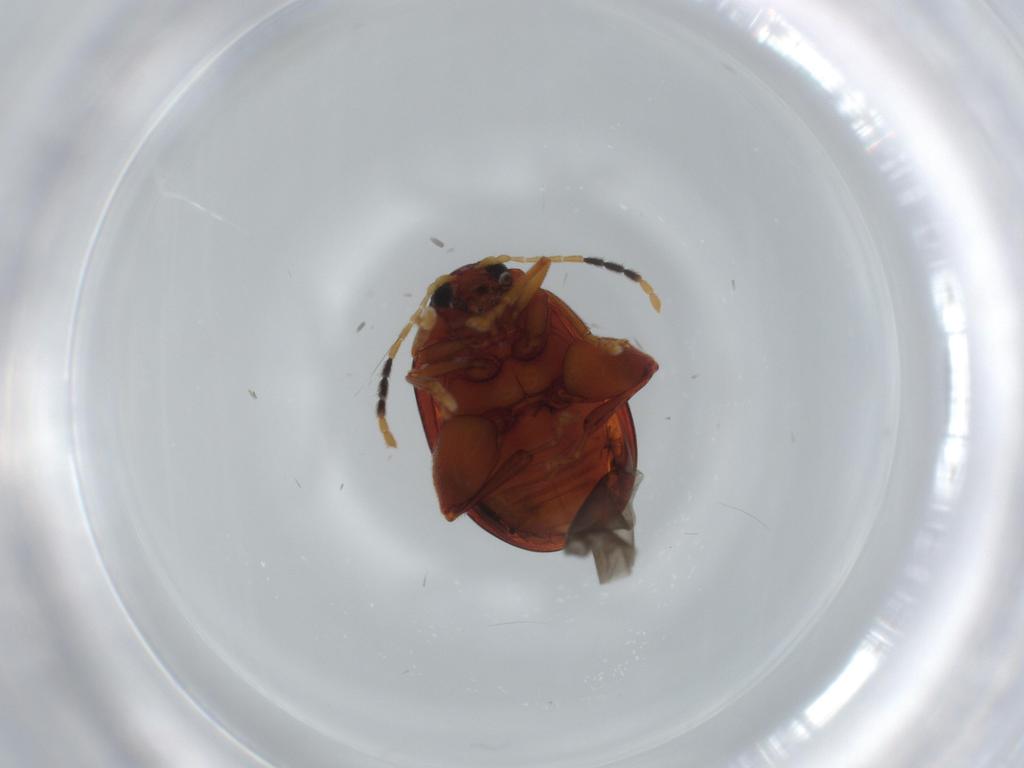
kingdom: Animalia
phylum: Arthropoda
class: Insecta
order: Coleoptera
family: Chrysomelidae
